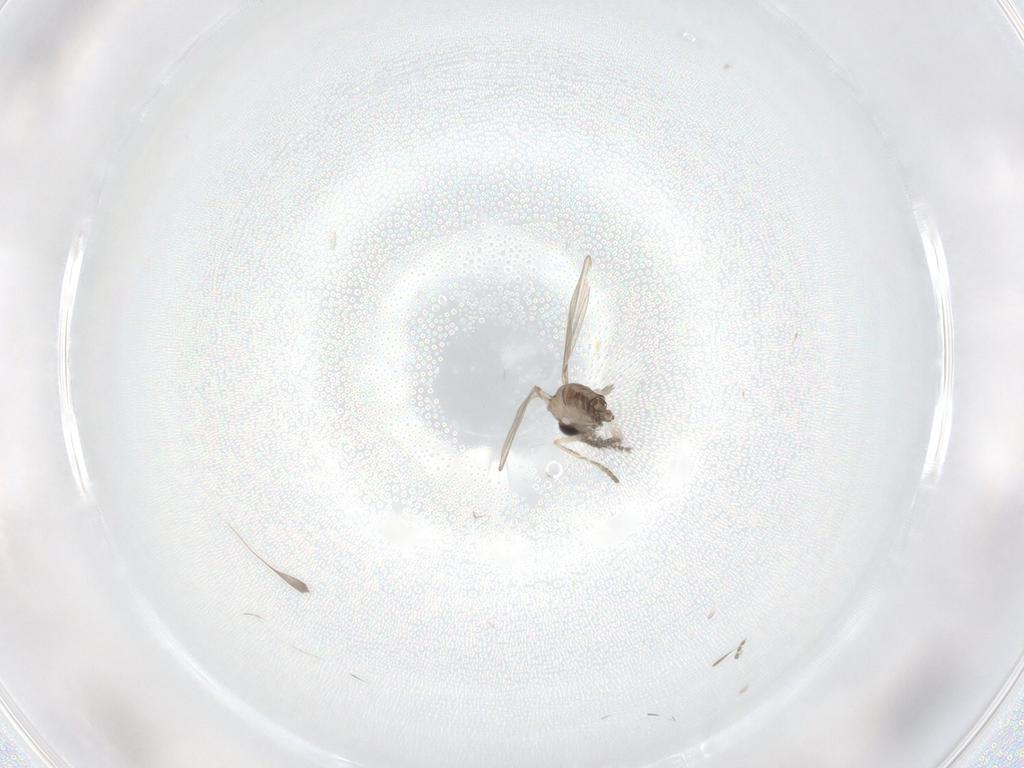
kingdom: Animalia
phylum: Arthropoda
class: Insecta
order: Diptera
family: Cecidomyiidae
